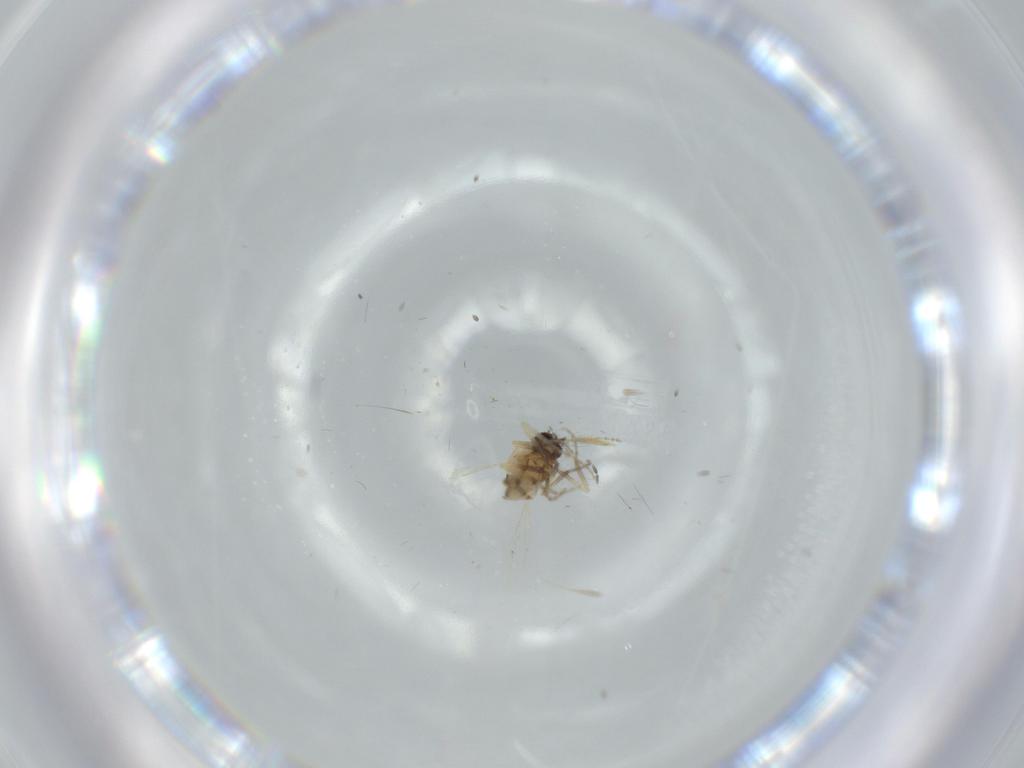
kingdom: Animalia
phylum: Arthropoda
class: Insecta
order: Diptera
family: Ceratopogonidae
